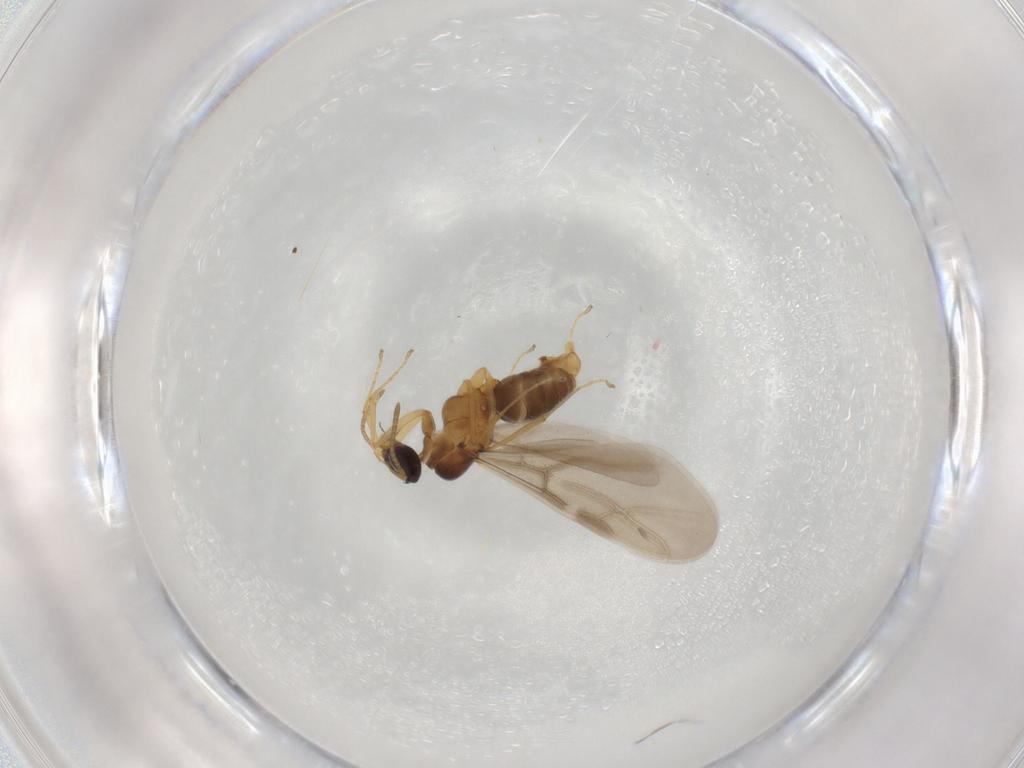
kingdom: Animalia
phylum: Arthropoda
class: Insecta
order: Hymenoptera
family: Formicidae
